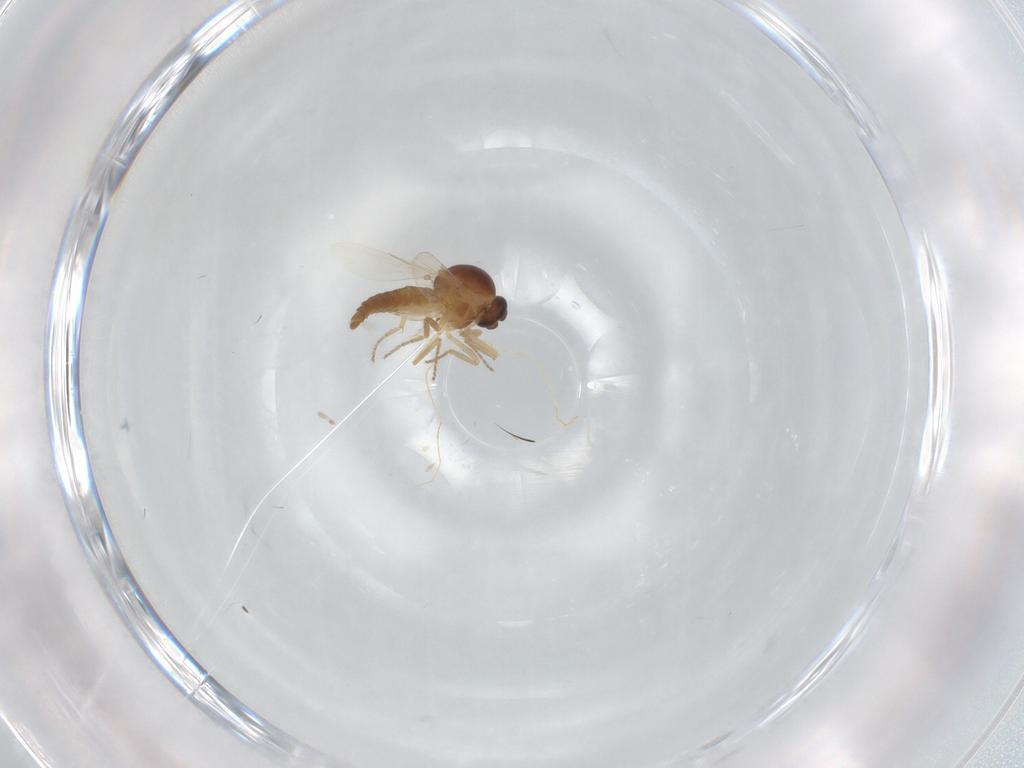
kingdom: Animalia
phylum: Arthropoda
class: Insecta
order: Diptera
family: Ceratopogonidae
